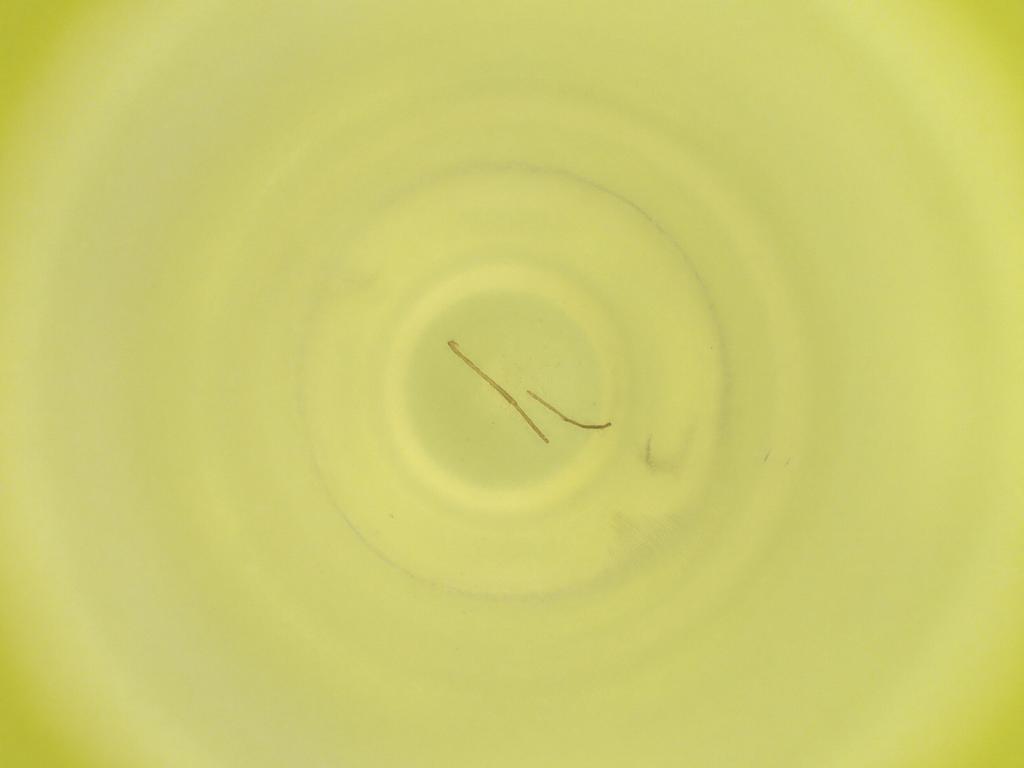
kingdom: Animalia
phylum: Arthropoda
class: Insecta
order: Diptera
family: Cecidomyiidae
